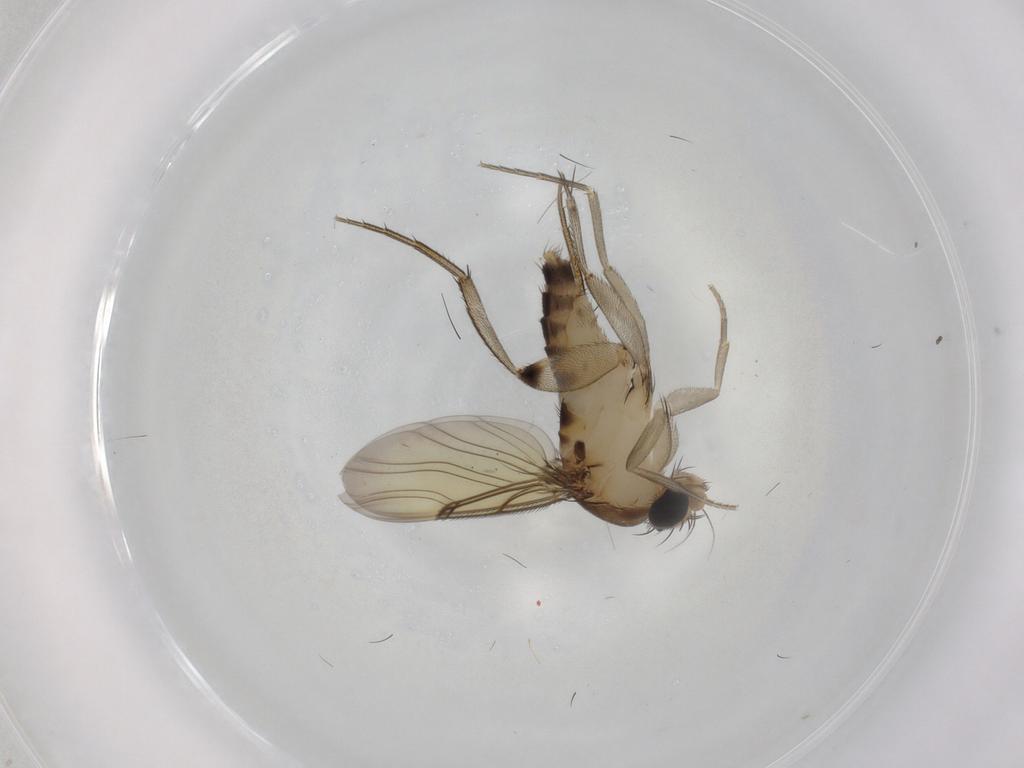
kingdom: Animalia
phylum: Arthropoda
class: Insecta
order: Diptera
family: Phoridae
